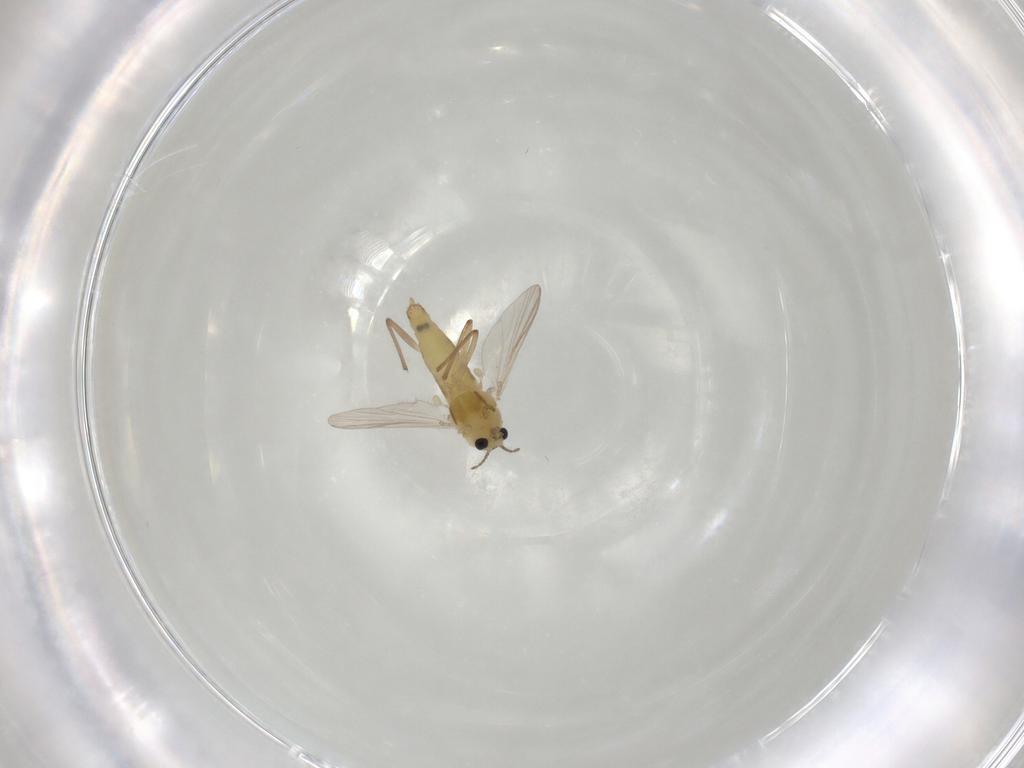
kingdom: Animalia
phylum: Arthropoda
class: Insecta
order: Diptera
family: Chironomidae
